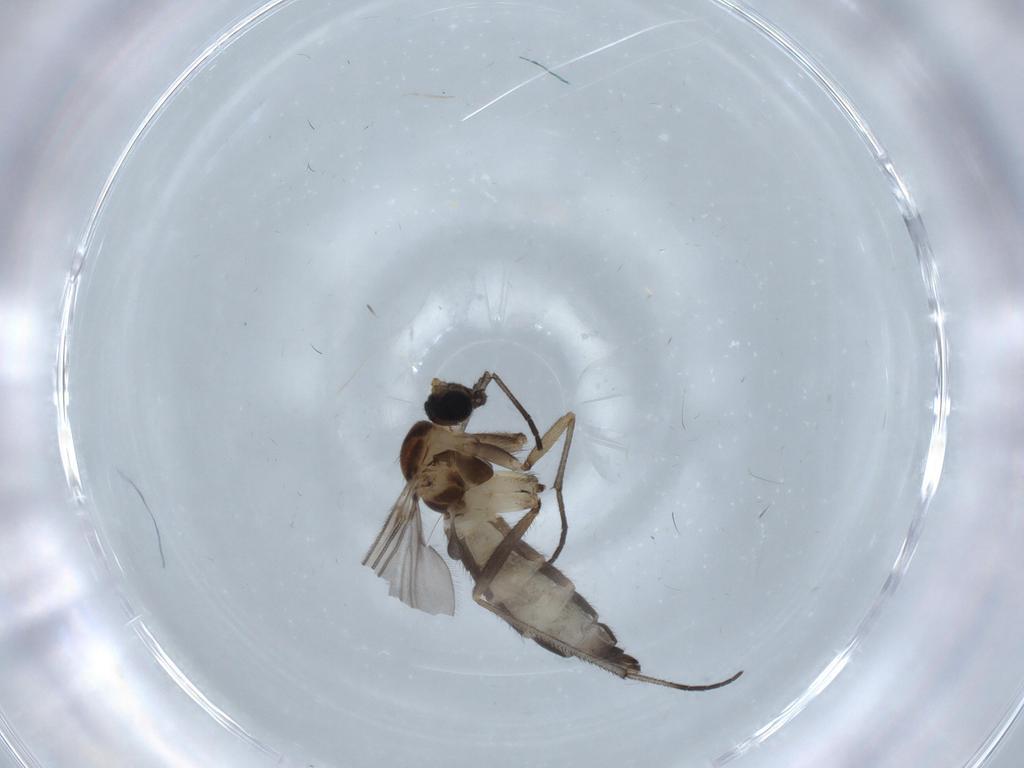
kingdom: Animalia
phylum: Arthropoda
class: Insecta
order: Diptera
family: Sciaridae
